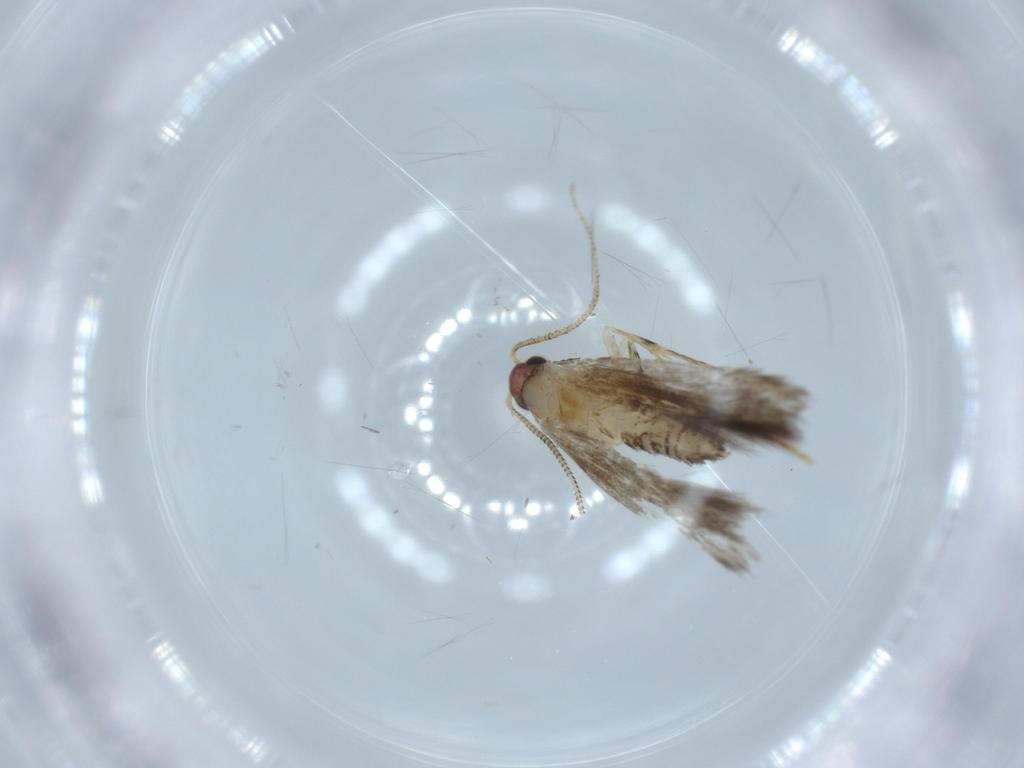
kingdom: Animalia
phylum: Arthropoda
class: Insecta
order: Lepidoptera
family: Tineidae
